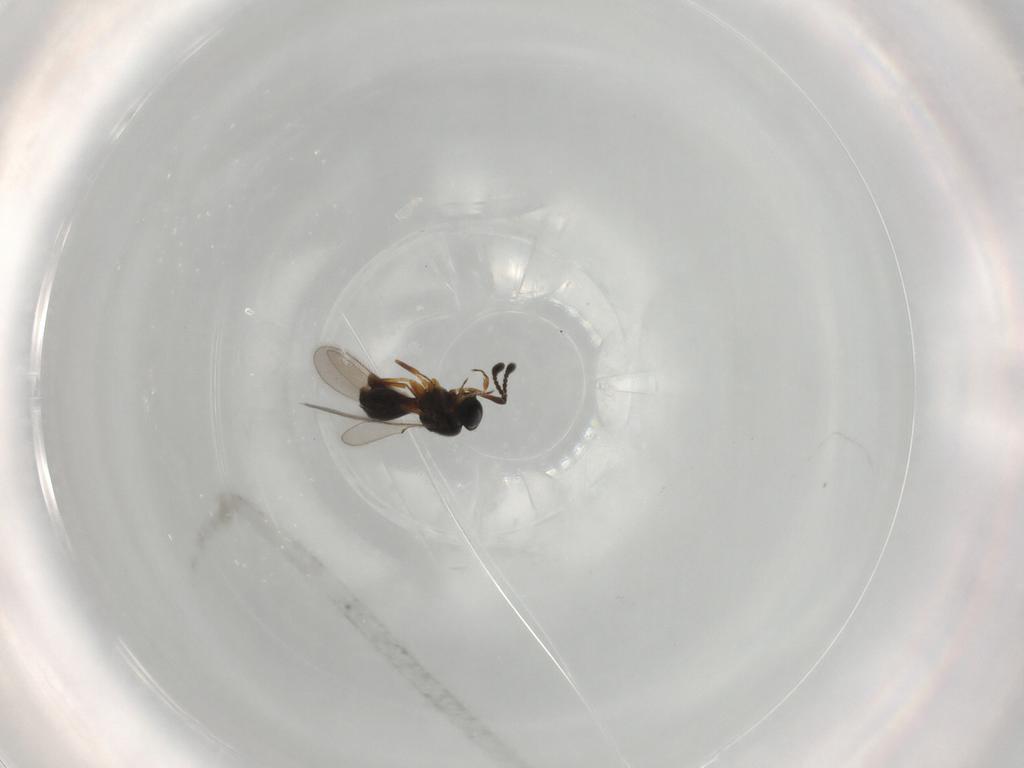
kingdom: Animalia
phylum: Arthropoda
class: Insecta
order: Hymenoptera
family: Scelionidae
